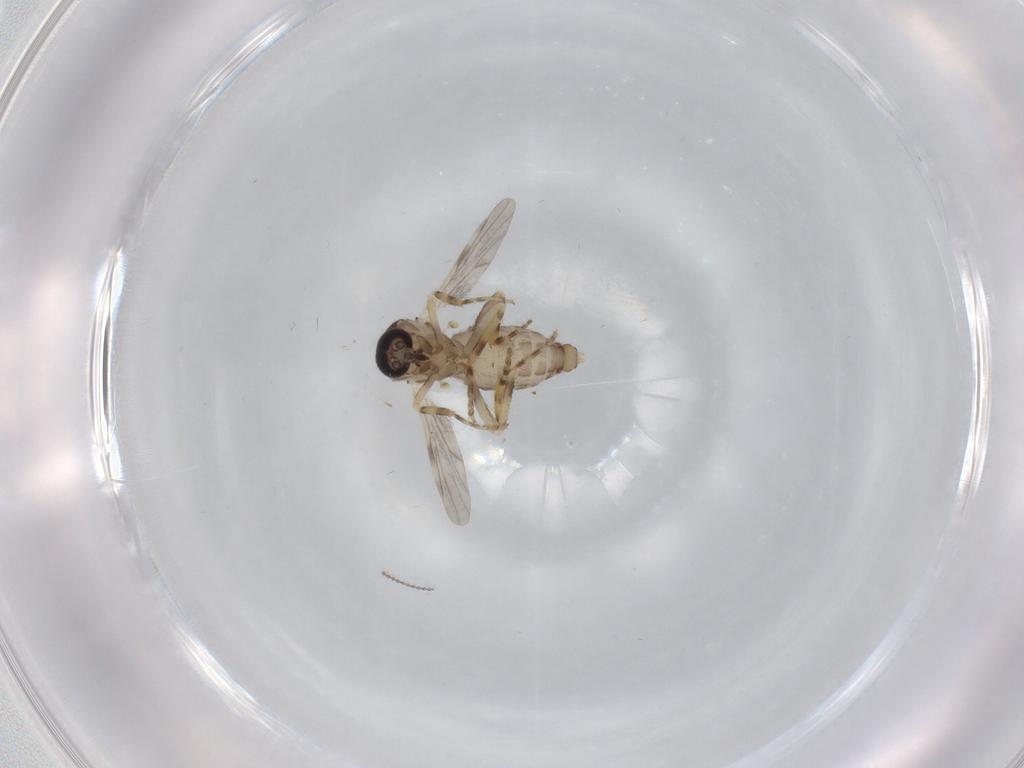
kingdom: Animalia
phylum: Arthropoda
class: Insecta
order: Diptera
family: Ceratopogonidae
